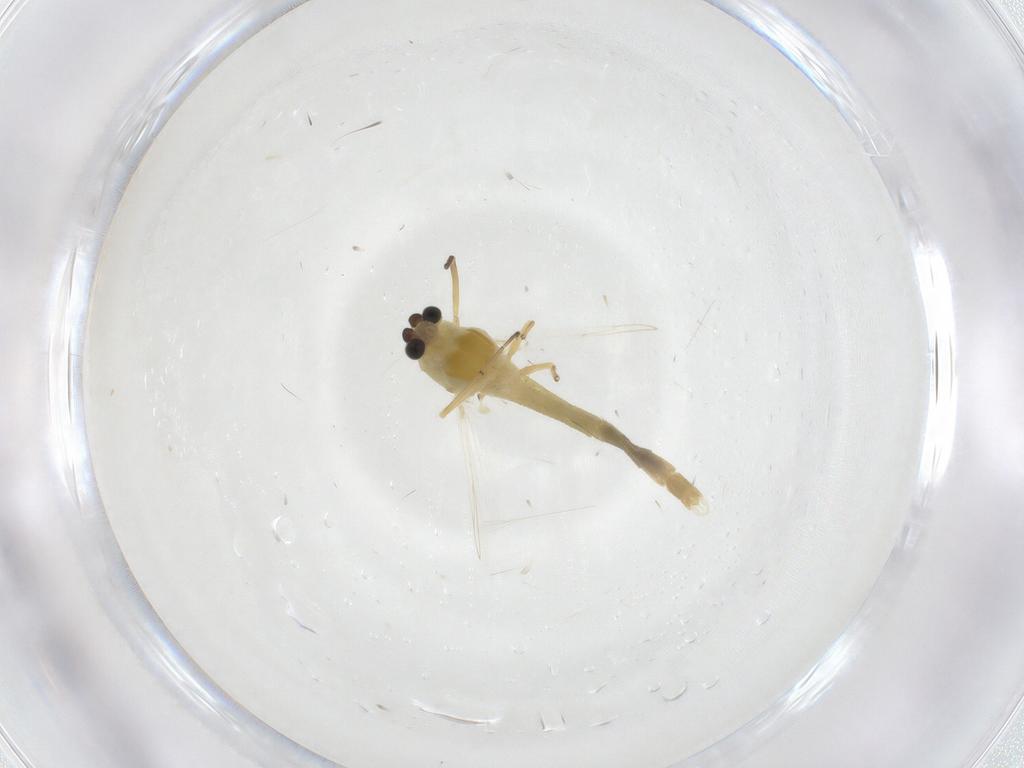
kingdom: Animalia
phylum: Arthropoda
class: Insecta
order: Diptera
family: Chironomidae
